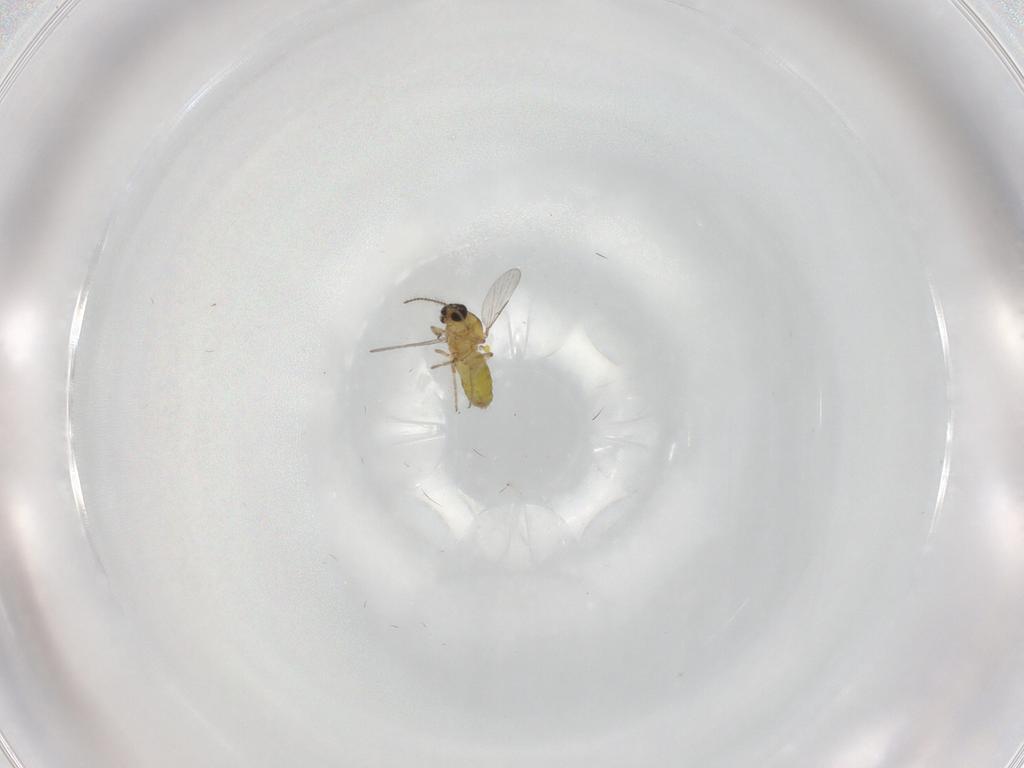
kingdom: Animalia
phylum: Arthropoda
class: Insecta
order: Diptera
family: Ceratopogonidae
